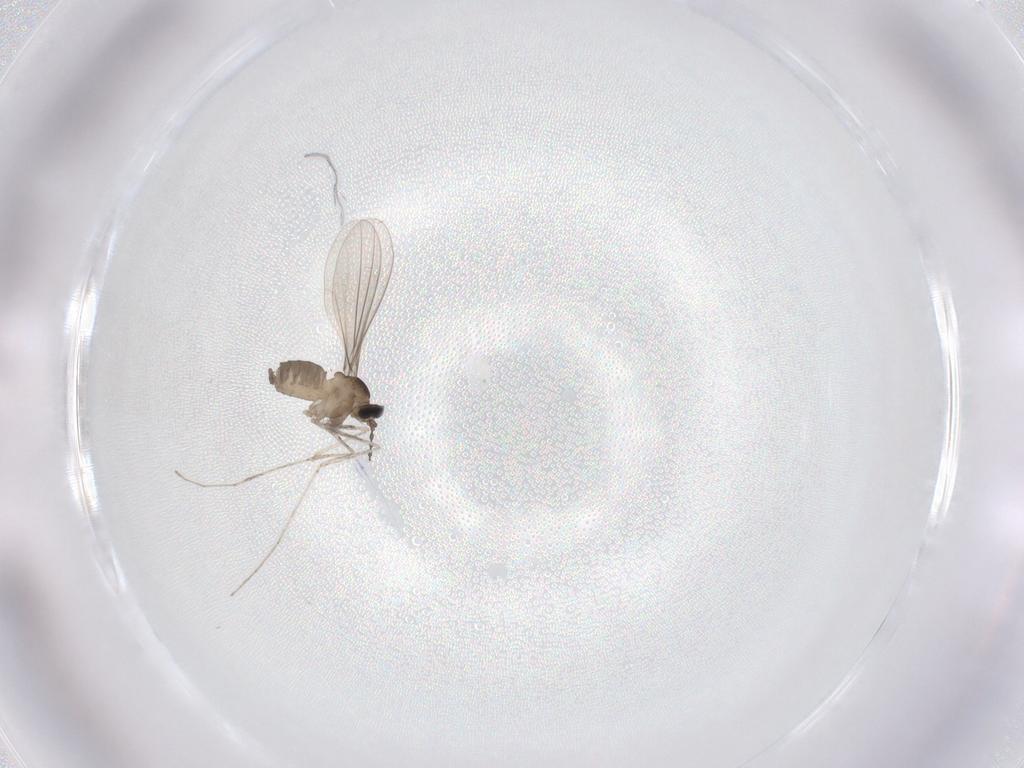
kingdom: Animalia
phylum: Arthropoda
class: Insecta
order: Diptera
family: Cecidomyiidae
